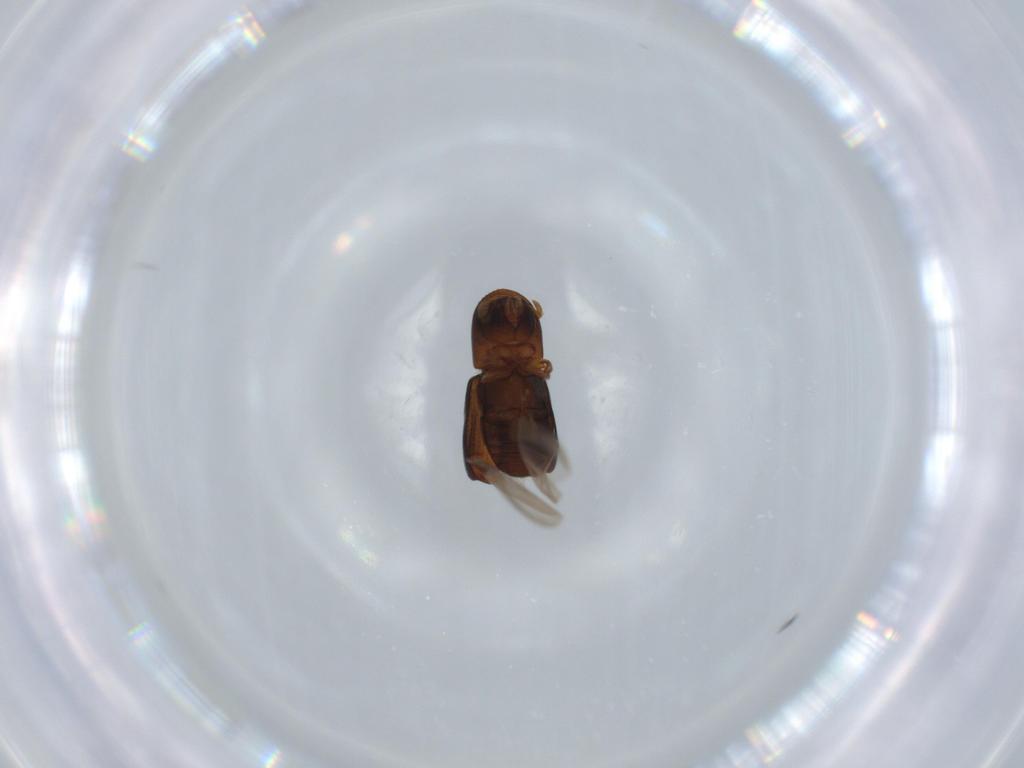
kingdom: Animalia
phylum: Arthropoda
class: Insecta
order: Coleoptera
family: Curculionidae
